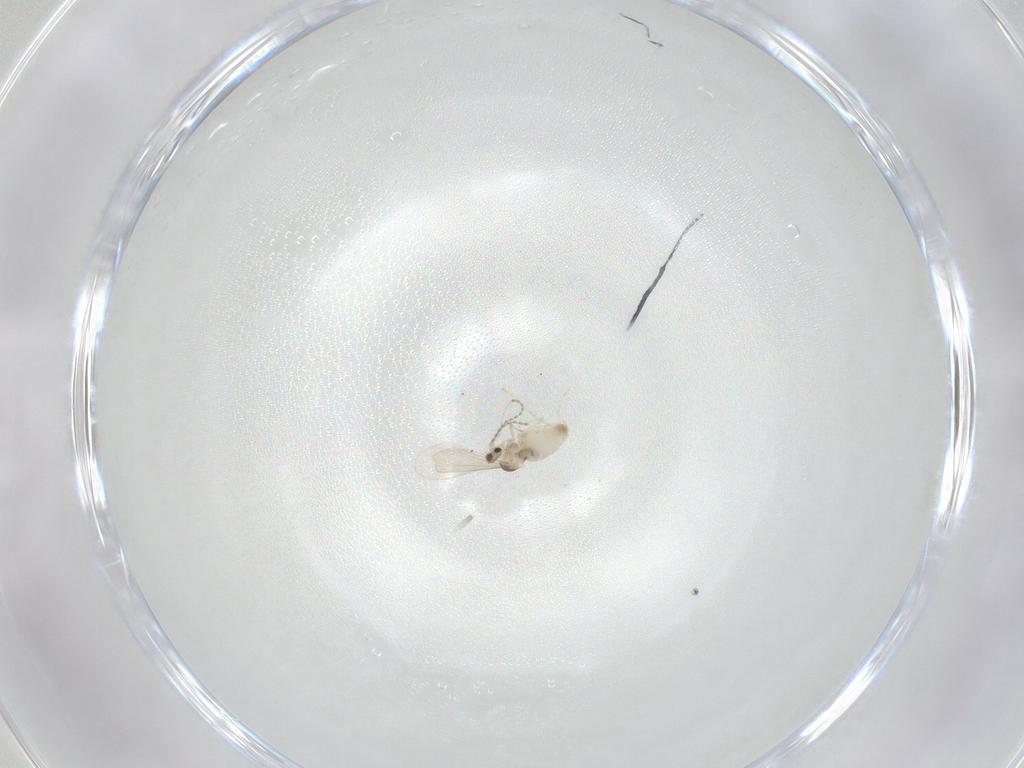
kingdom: Animalia
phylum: Arthropoda
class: Insecta
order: Diptera
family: Cecidomyiidae
